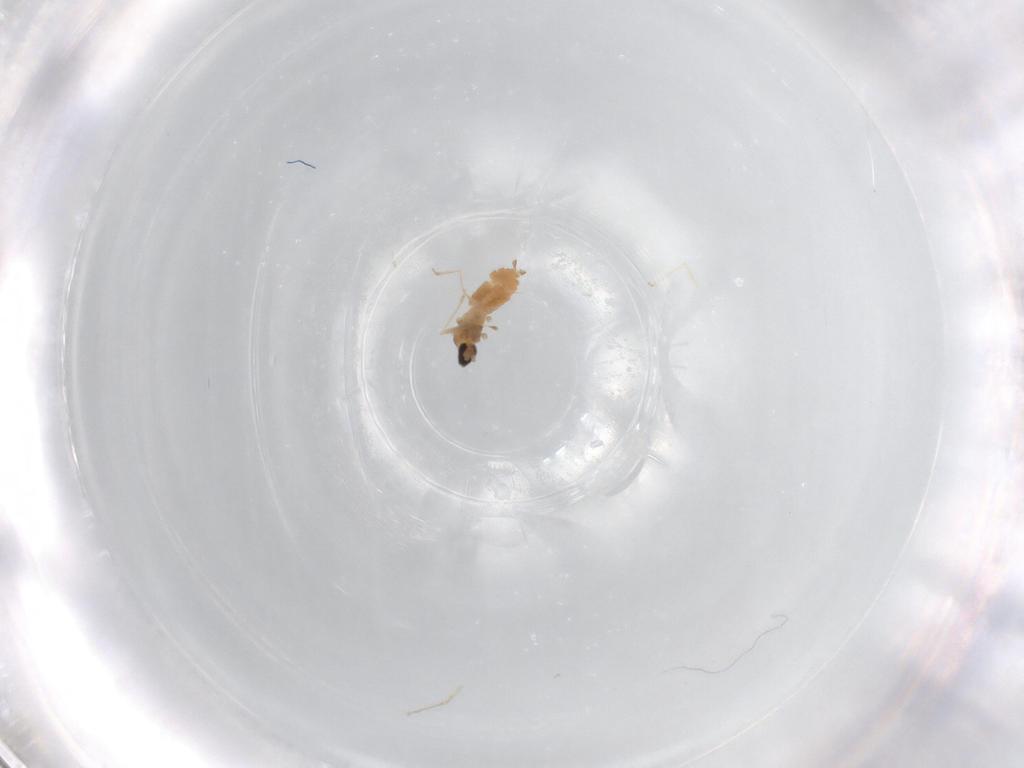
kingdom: Animalia
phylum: Arthropoda
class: Insecta
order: Diptera
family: Cecidomyiidae
